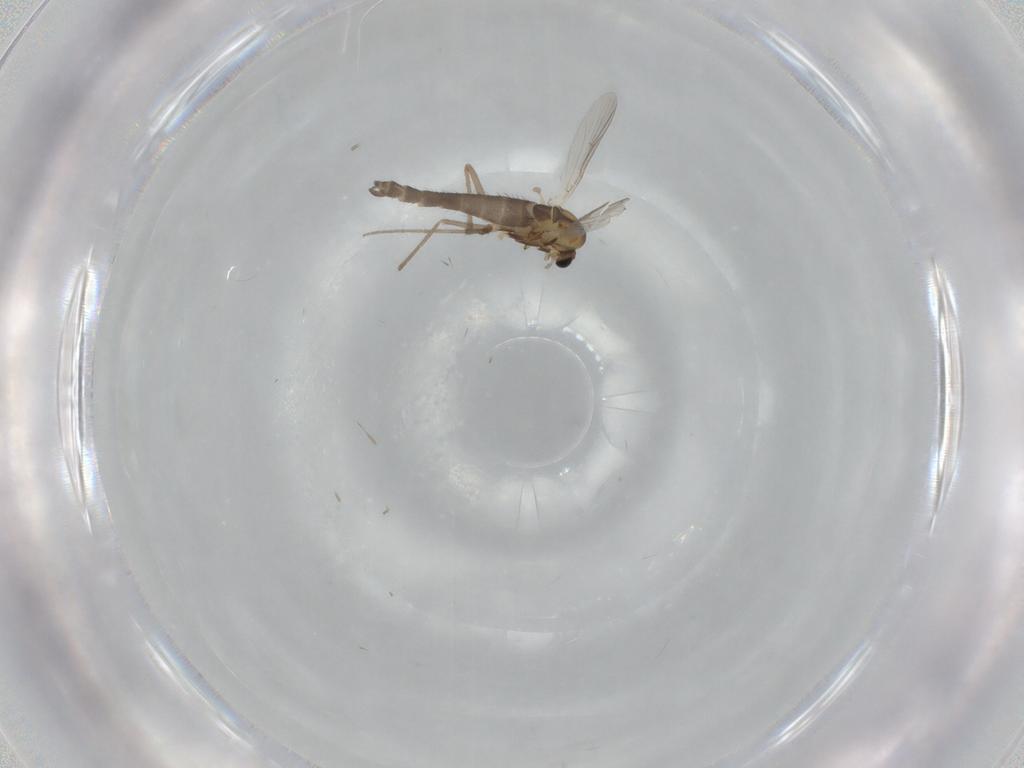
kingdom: Animalia
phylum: Arthropoda
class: Insecta
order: Diptera
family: Chironomidae
